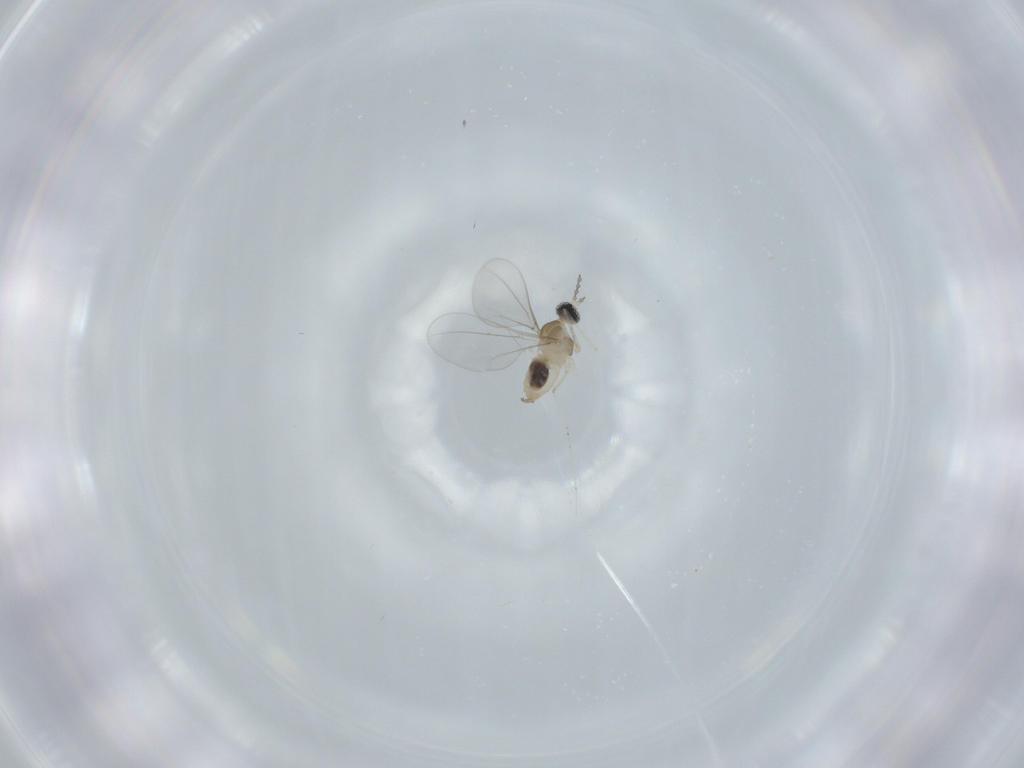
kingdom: Animalia
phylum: Arthropoda
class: Insecta
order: Diptera
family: Cecidomyiidae
